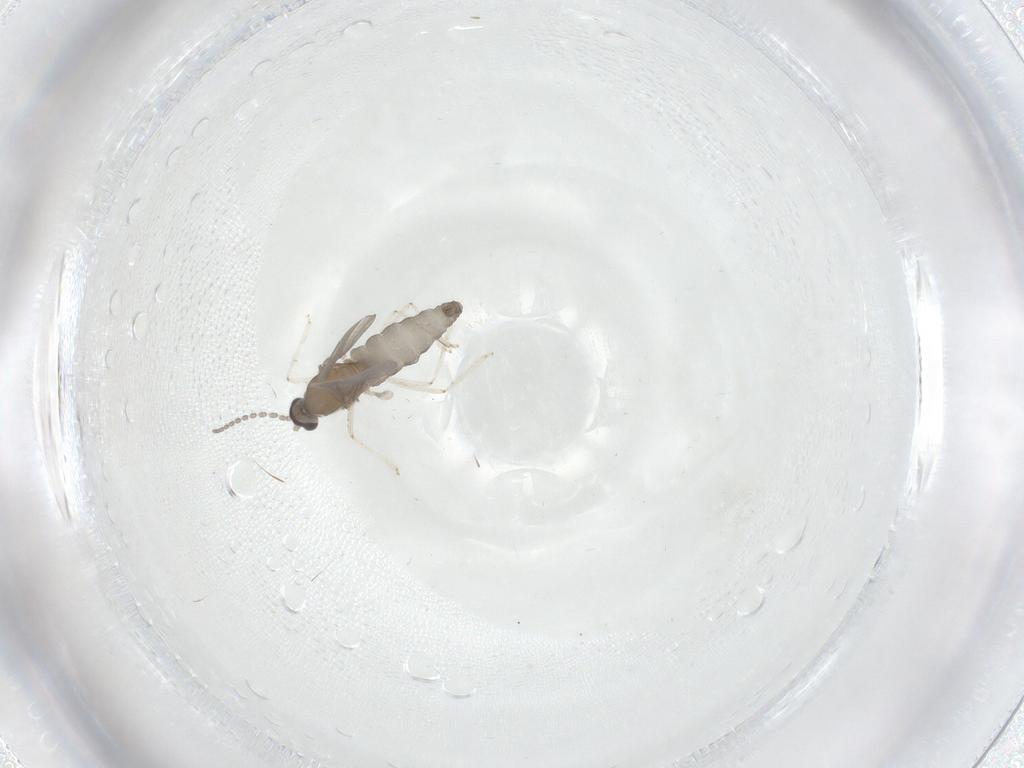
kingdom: Animalia
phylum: Arthropoda
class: Insecta
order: Diptera
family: Cecidomyiidae
